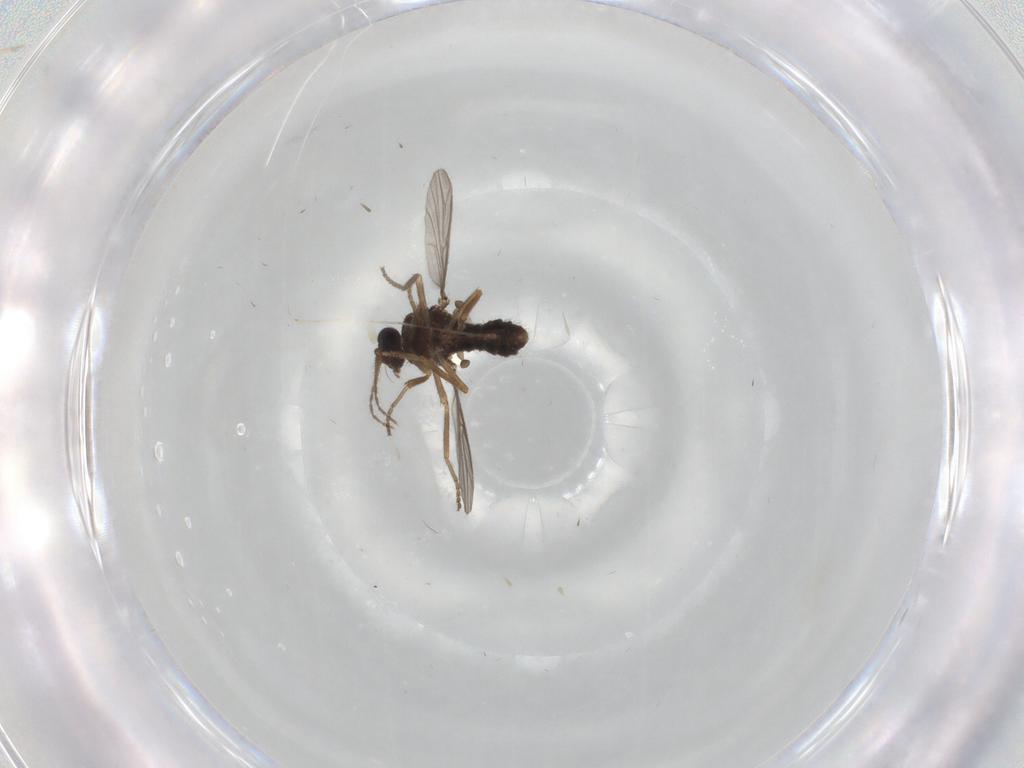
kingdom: Animalia
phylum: Arthropoda
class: Insecta
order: Diptera
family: Ceratopogonidae
